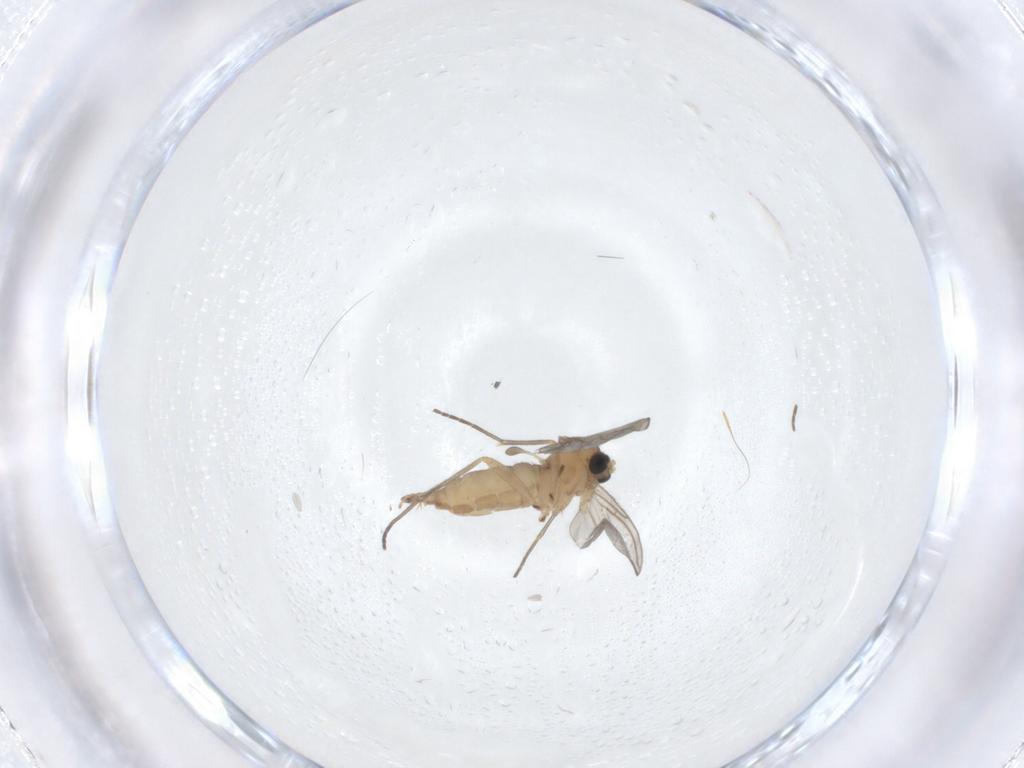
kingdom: Animalia
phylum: Arthropoda
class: Insecta
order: Diptera
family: Sciaridae
